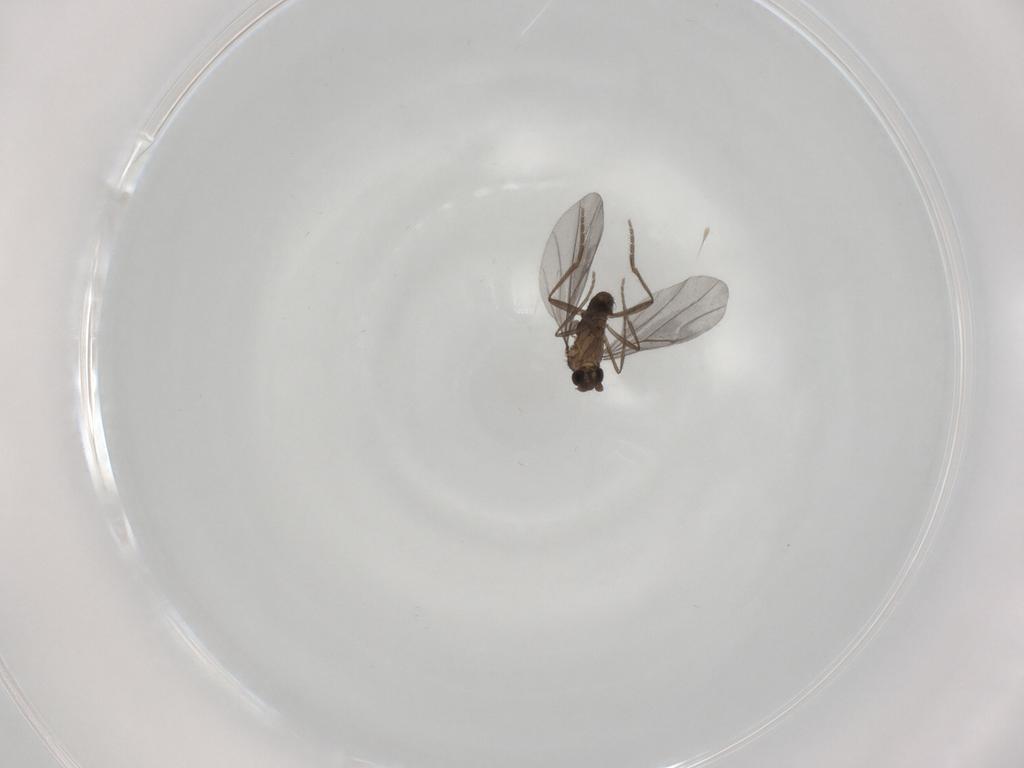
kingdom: Animalia
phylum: Arthropoda
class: Insecta
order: Diptera
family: Phoridae
